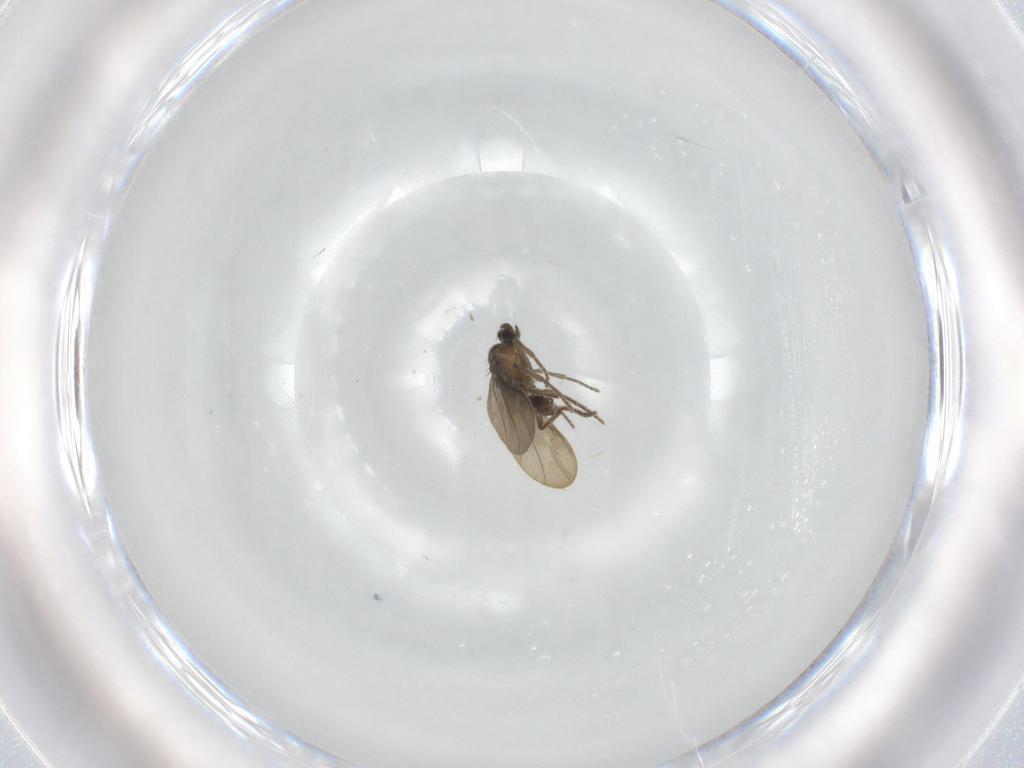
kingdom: Animalia
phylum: Arthropoda
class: Insecta
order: Diptera
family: Phoridae
